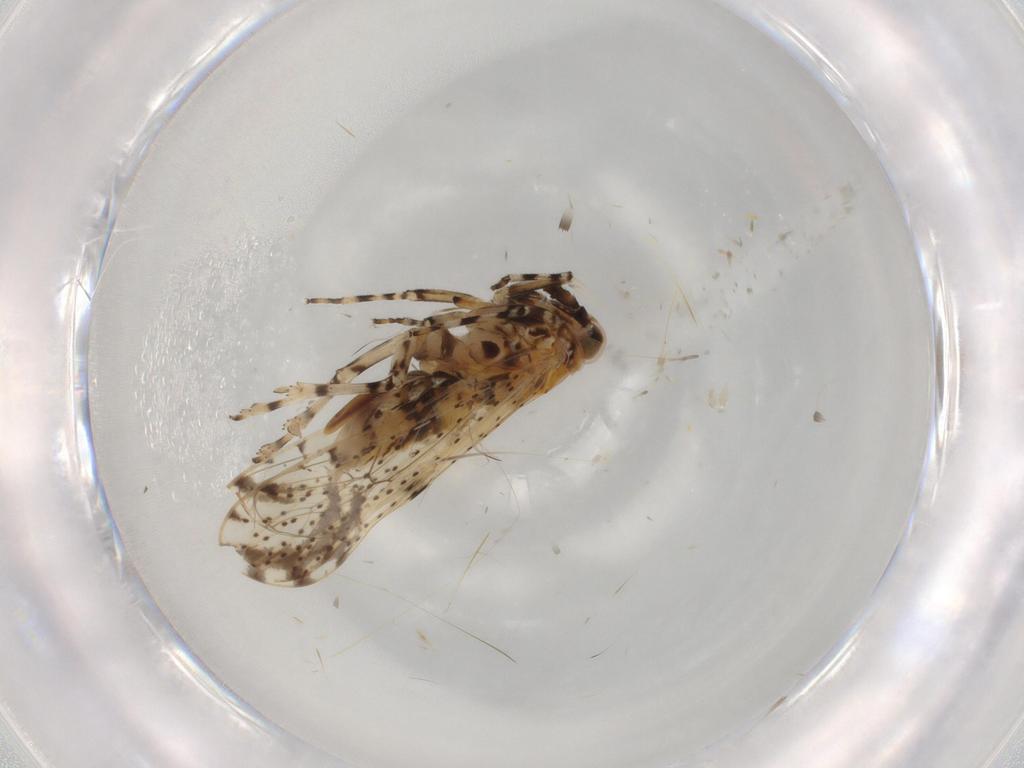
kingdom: Animalia
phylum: Arthropoda
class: Insecta
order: Hemiptera
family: Delphacidae
